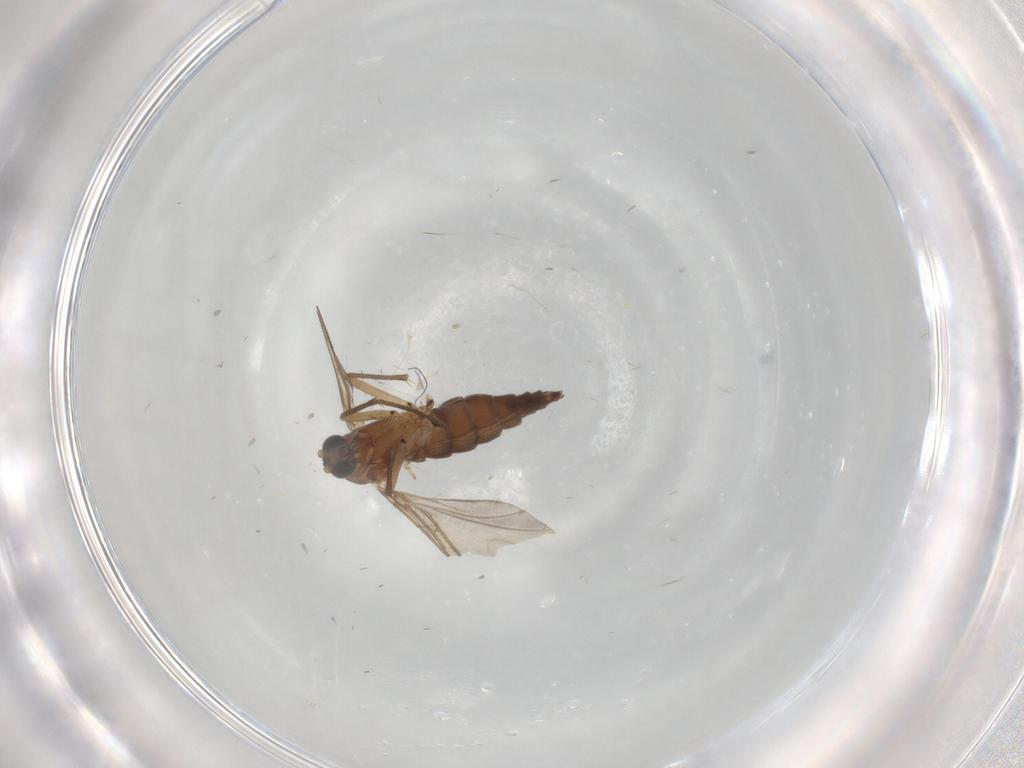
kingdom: Animalia
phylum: Arthropoda
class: Insecta
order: Diptera
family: Sciaridae
